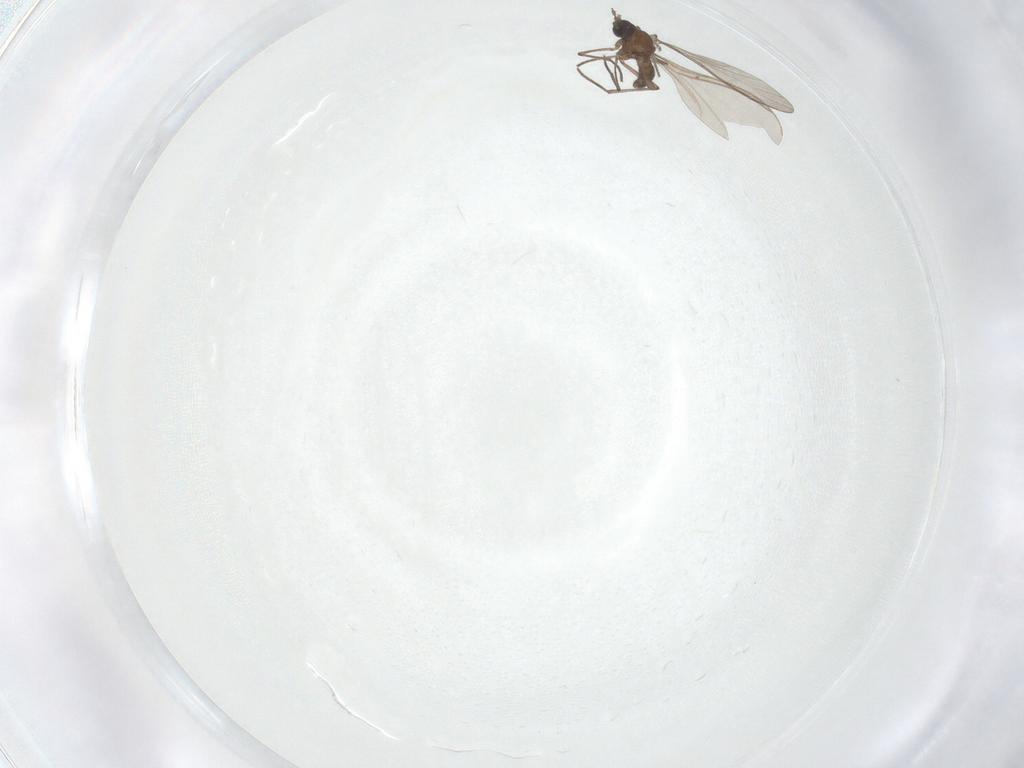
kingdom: Animalia
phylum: Arthropoda
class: Insecta
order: Diptera
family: Sciaridae
